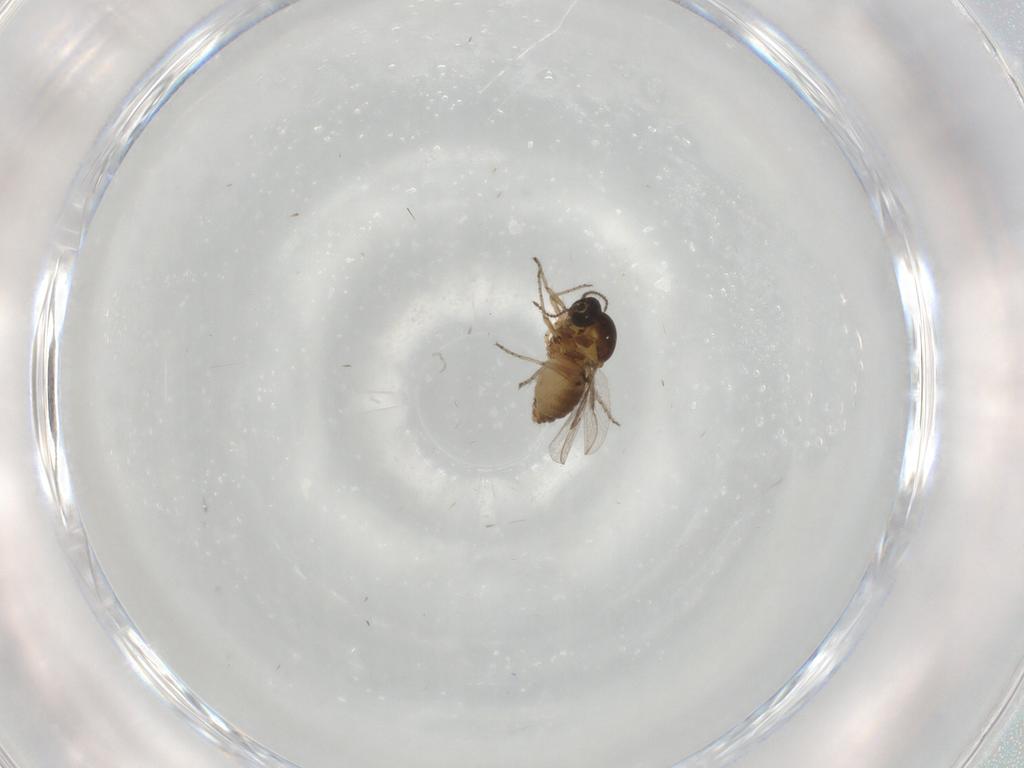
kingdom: Animalia
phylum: Arthropoda
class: Insecta
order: Diptera
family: Ceratopogonidae
